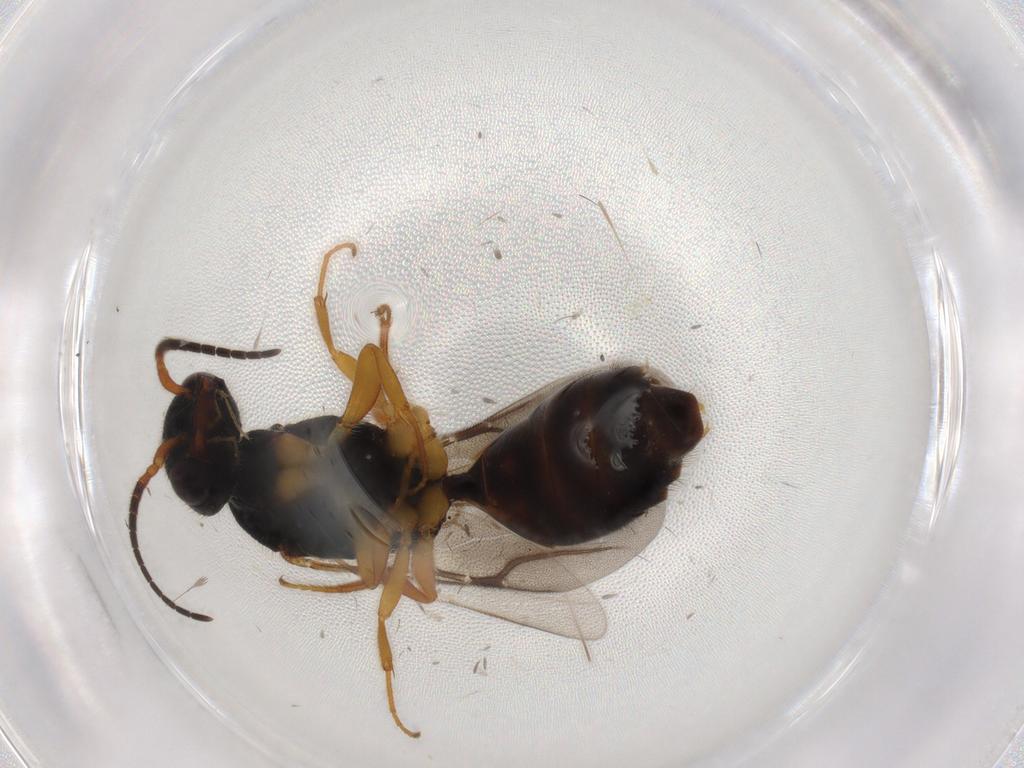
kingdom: Animalia
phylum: Arthropoda
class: Insecta
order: Hymenoptera
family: Bethylidae
